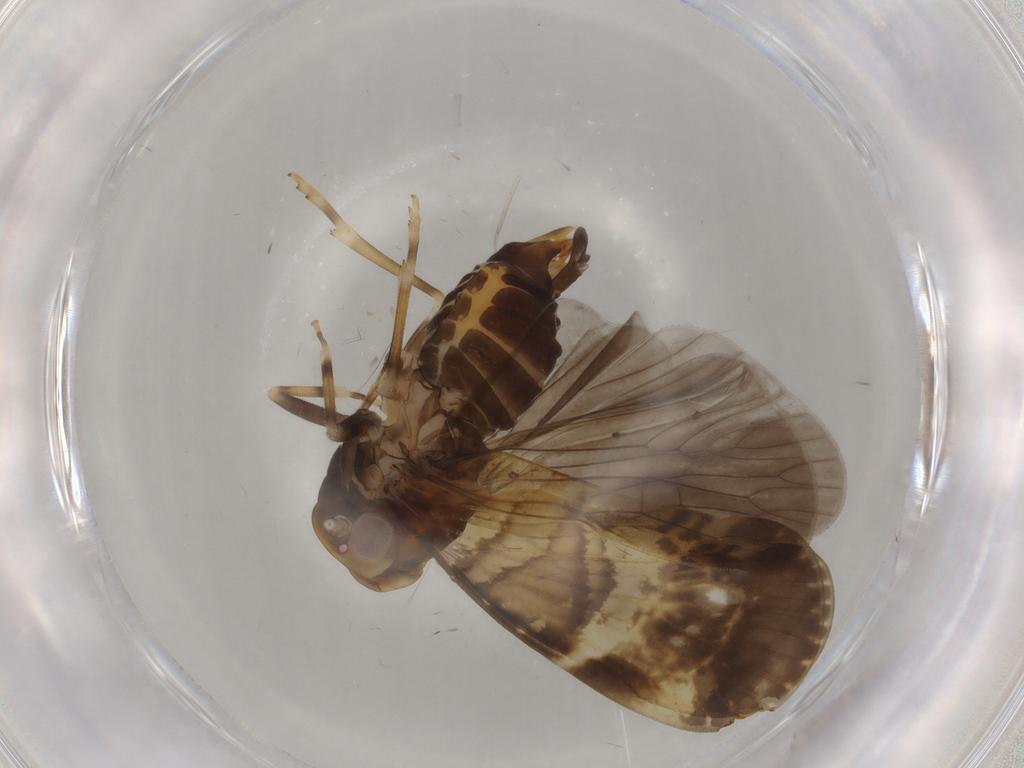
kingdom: Animalia
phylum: Arthropoda
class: Insecta
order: Hemiptera
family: Cixiidae
